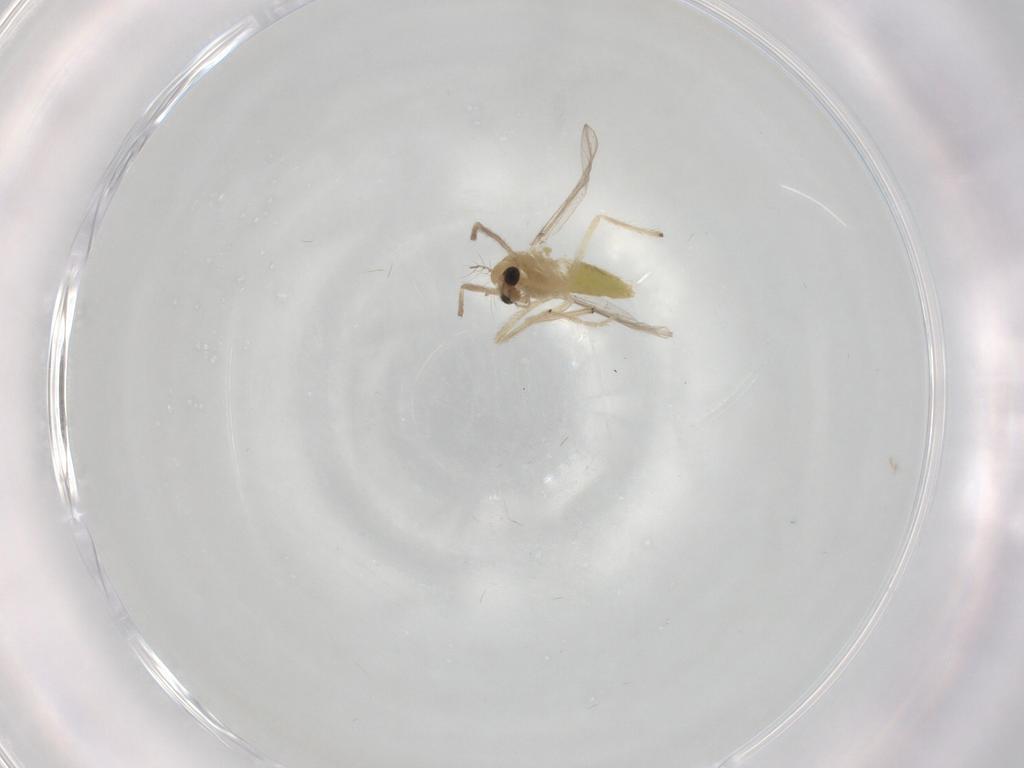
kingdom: Animalia
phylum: Arthropoda
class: Insecta
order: Diptera
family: Chironomidae
